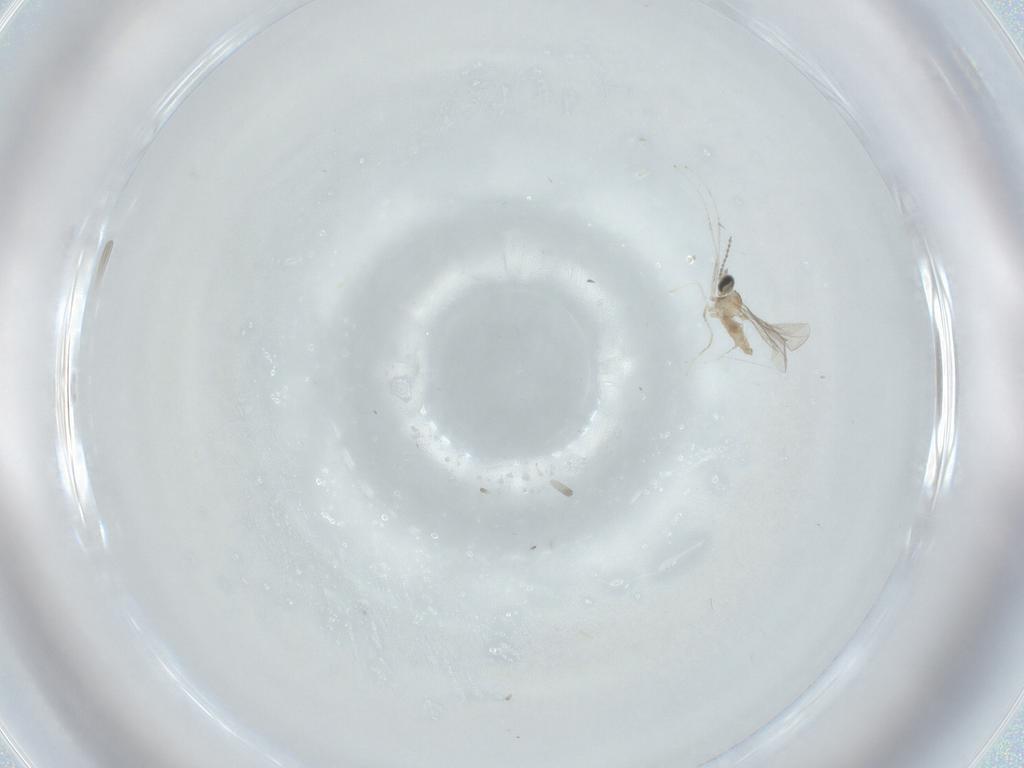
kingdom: Animalia
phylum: Arthropoda
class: Insecta
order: Diptera
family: Cecidomyiidae
